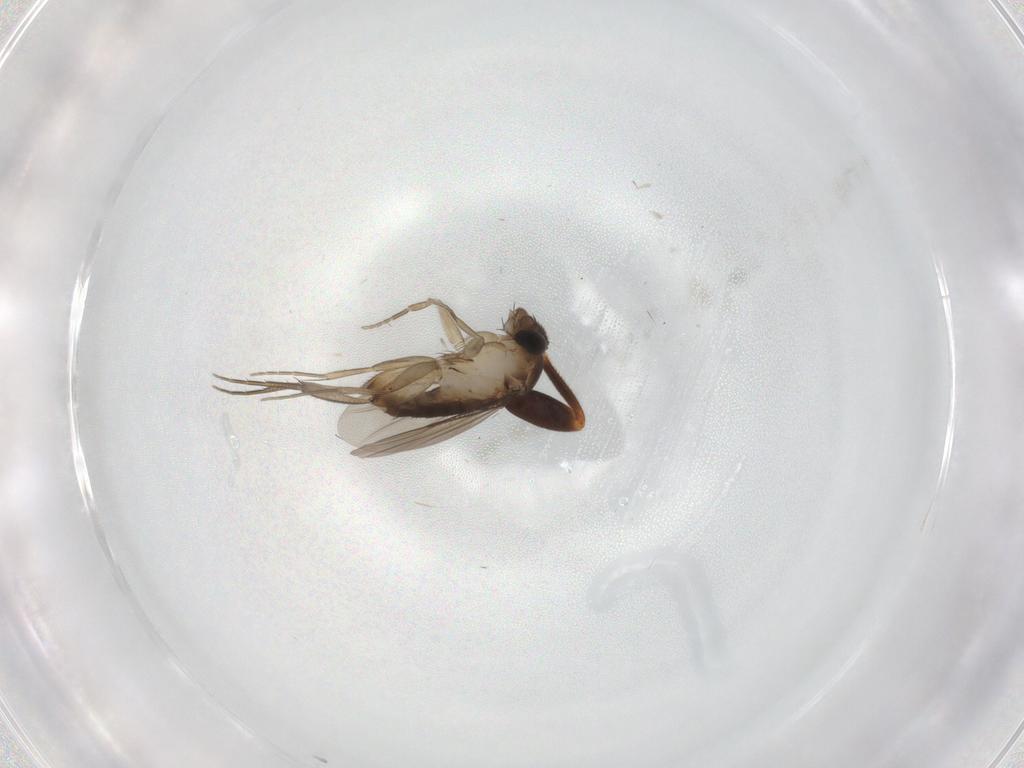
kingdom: Animalia
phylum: Arthropoda
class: Insecta
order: Diptera
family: Phoridae
